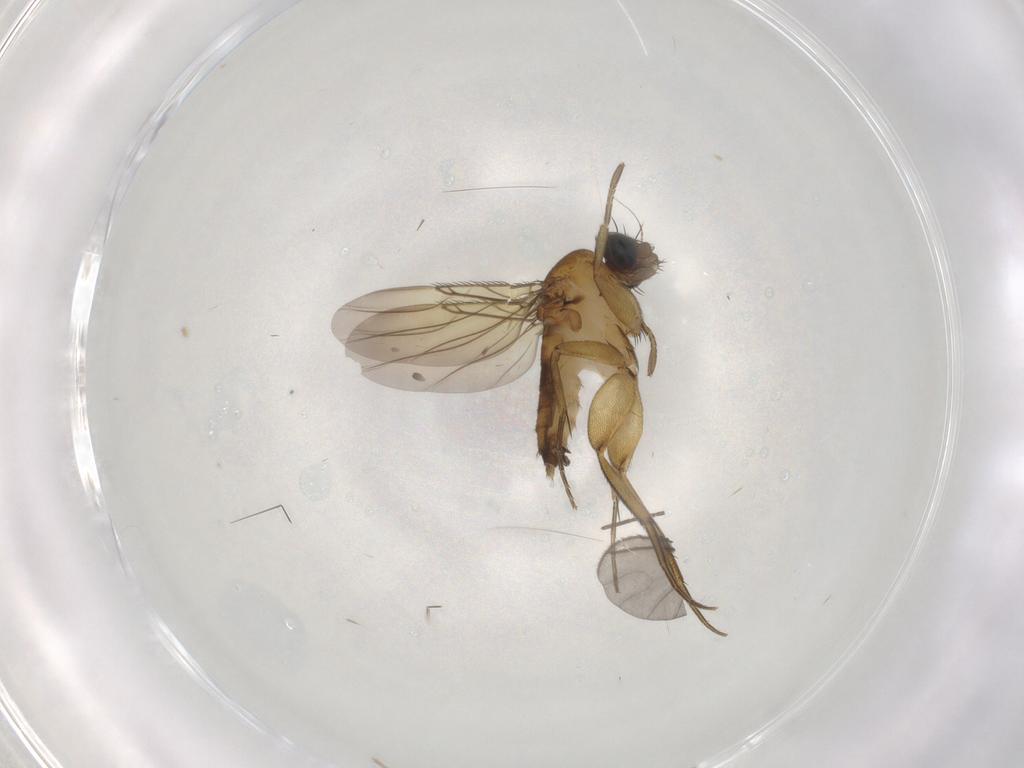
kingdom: Animalia
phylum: Arthropoda
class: Insecta
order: Diptera
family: Phoridae
